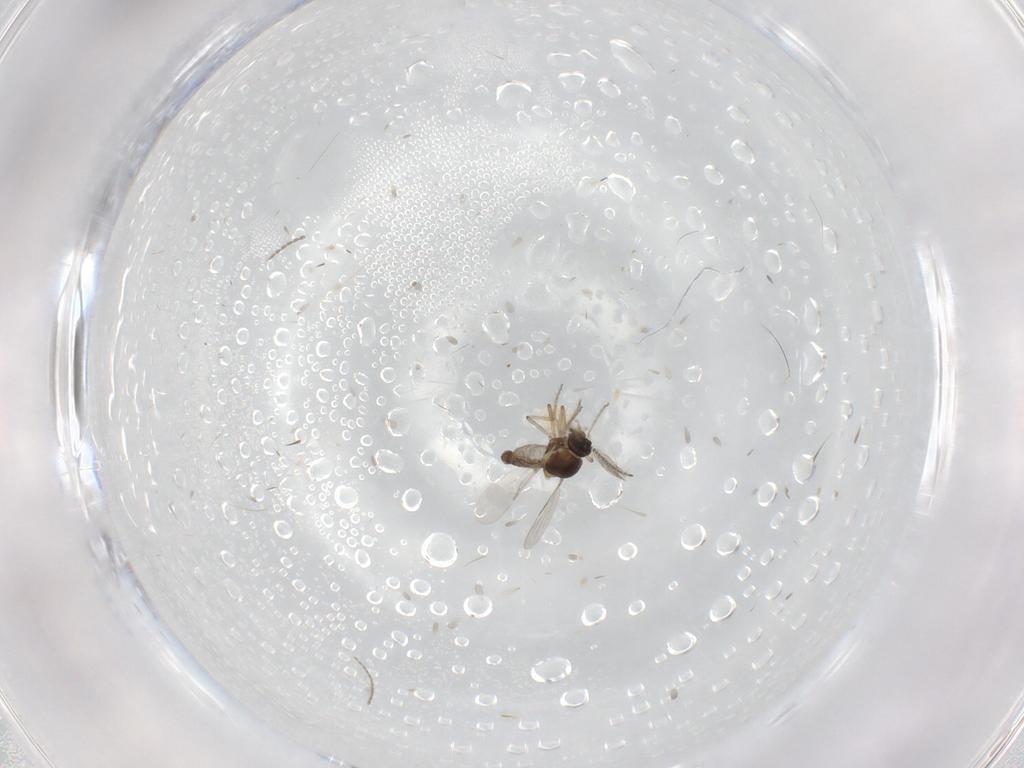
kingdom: Animalia
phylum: Arthropoda
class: Insecta
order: Diptera
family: Ceratopogonidae
